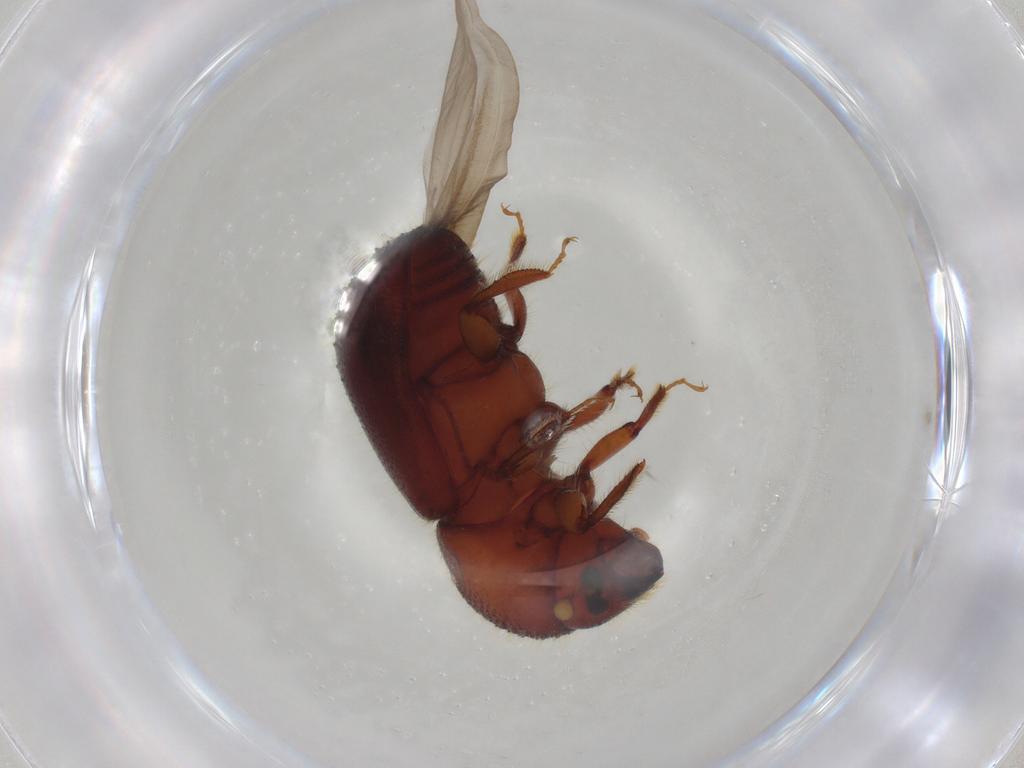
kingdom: Animalia
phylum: Arthropoda
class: Insecta
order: Coleoptera
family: Curculionidae
